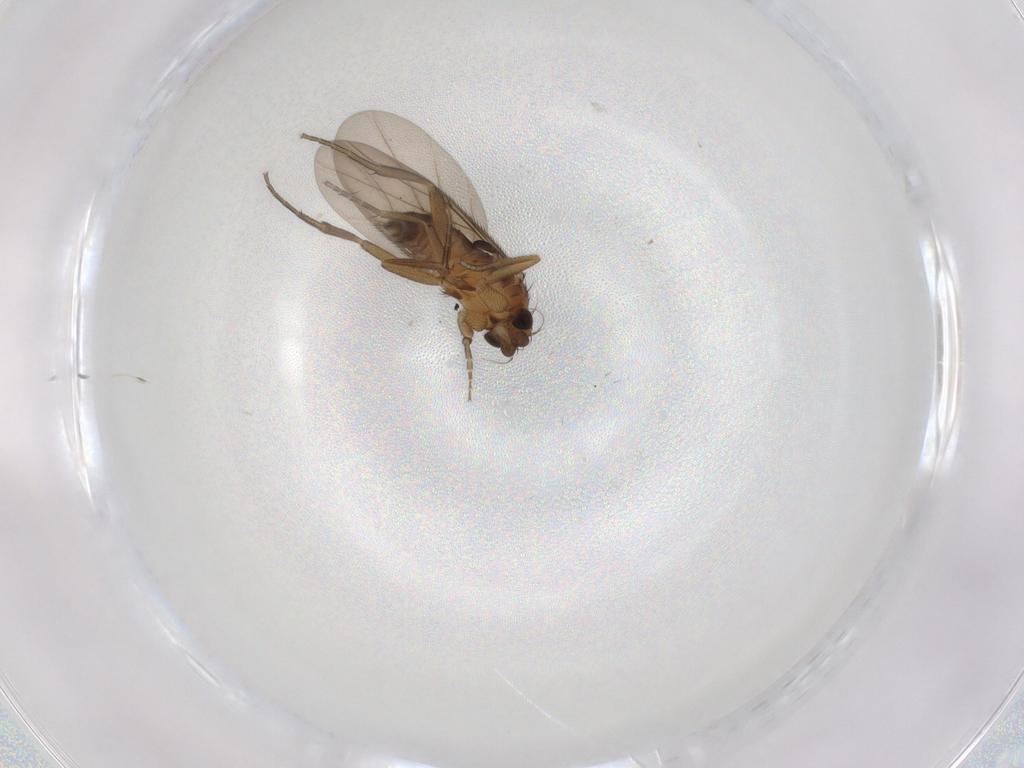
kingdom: Animalia
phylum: Arthropoda
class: Insecta
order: Diptera
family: Phoridae
